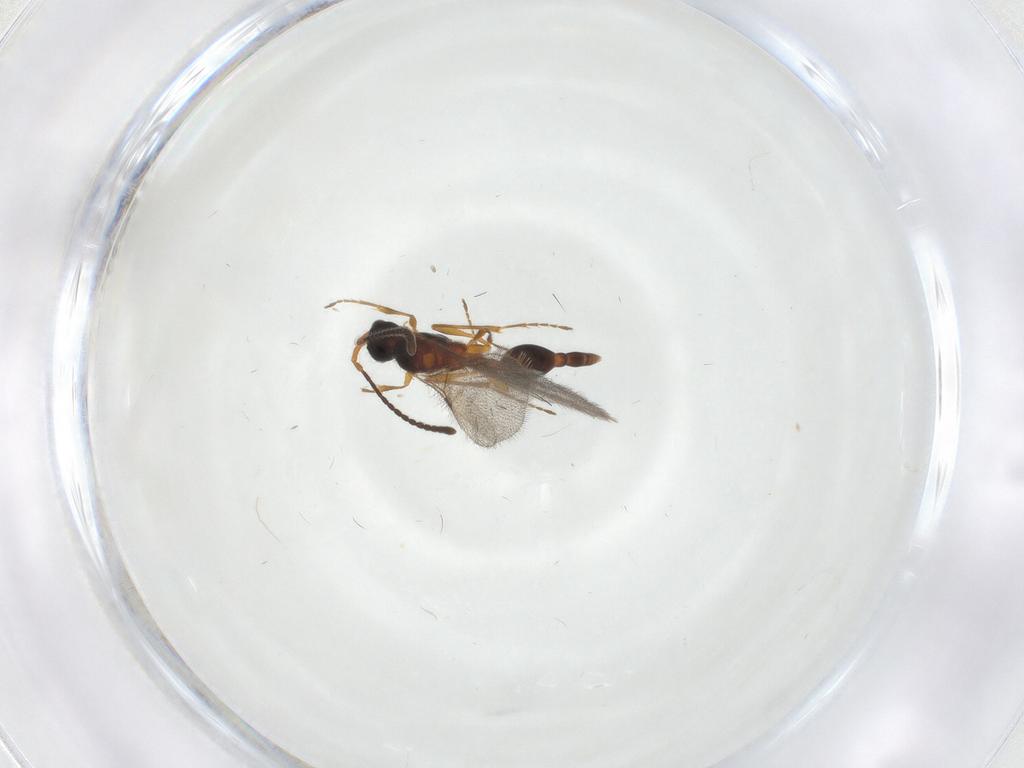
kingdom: Animalia
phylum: Arthropoda
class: Insecta
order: Hymenoptera
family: Diapriidae
